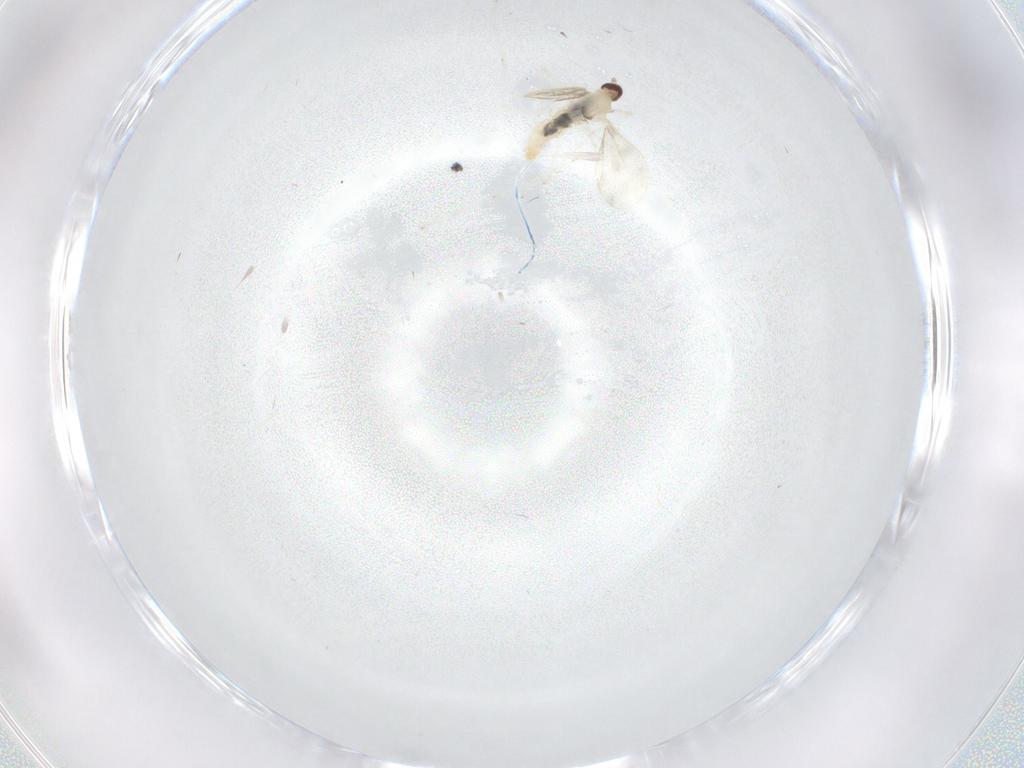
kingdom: Animalia
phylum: Arthropoda
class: Insecta
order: Diptera
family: Cecidomyiidae
